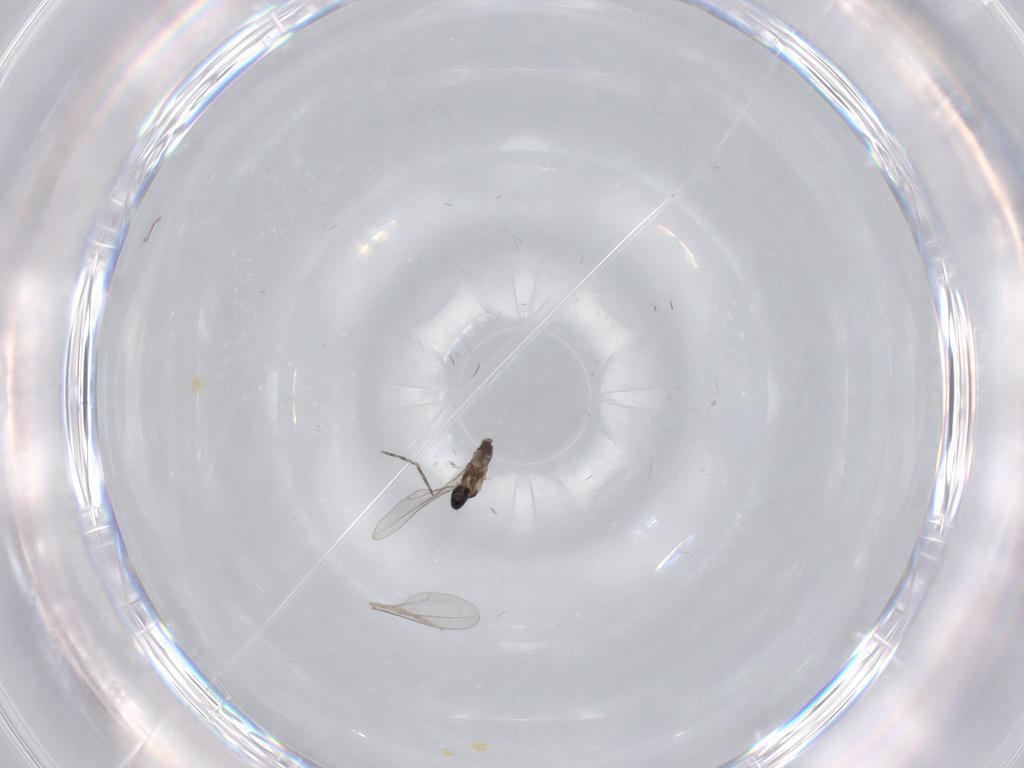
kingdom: Animalia
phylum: Arthropoda
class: Insecta
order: Diptera
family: Cecidomyiidae
